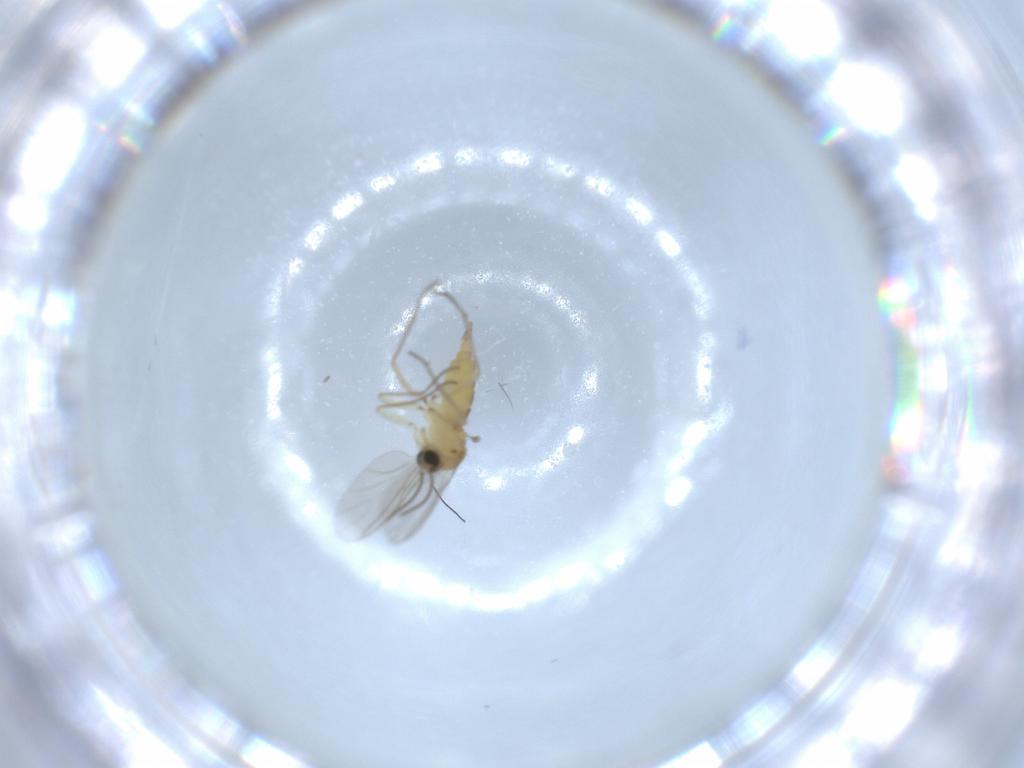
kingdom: Animalia
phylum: Arthropoda
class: Insecta
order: Diptera
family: Sciaridae
